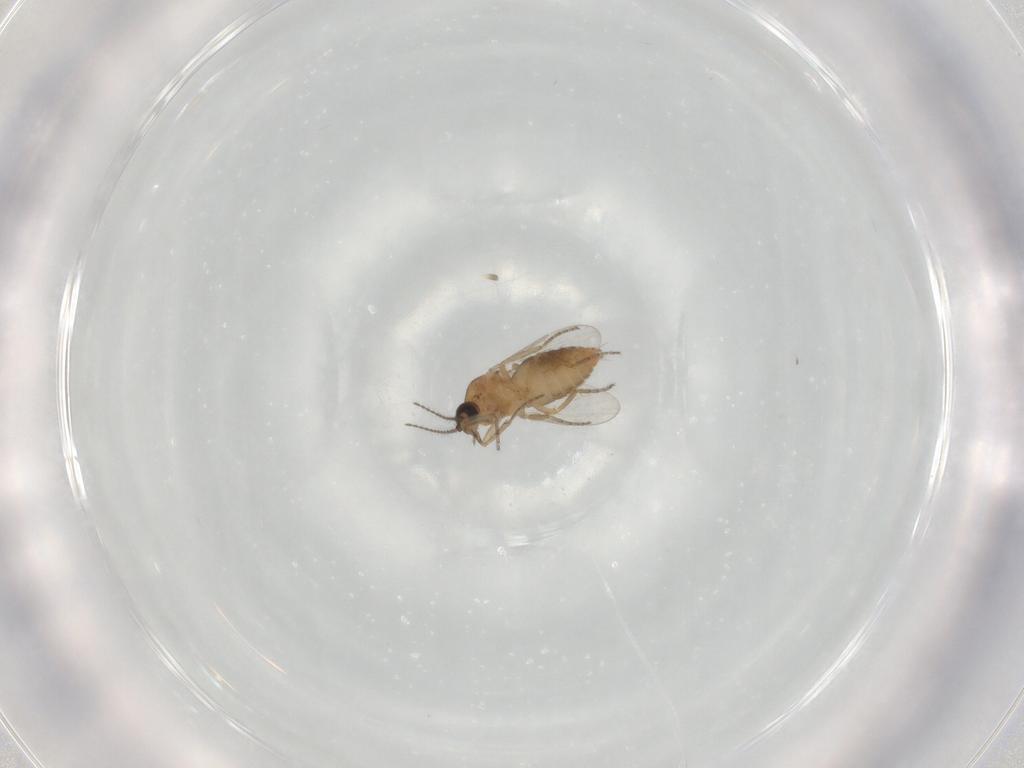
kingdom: Animalia
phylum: Arthropoda
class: Insecta
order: Diptera
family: Ceratopogonidae
